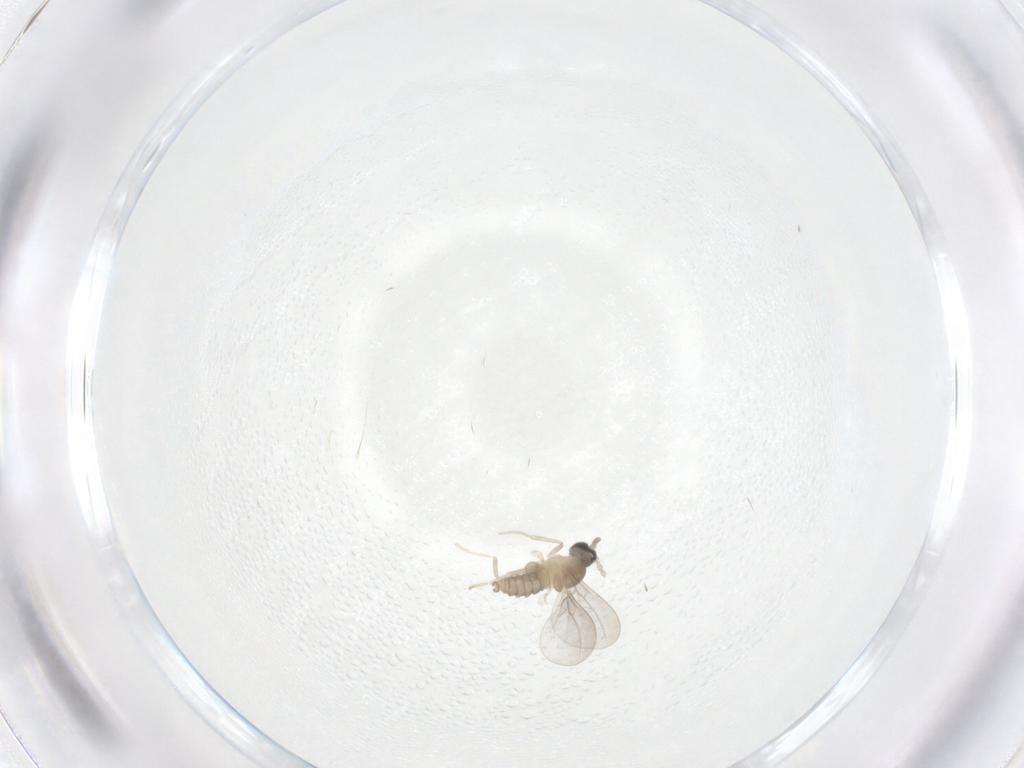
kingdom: Animalia
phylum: Arthropoda
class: Insecta
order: Diptera
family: Cecidomyiidae
